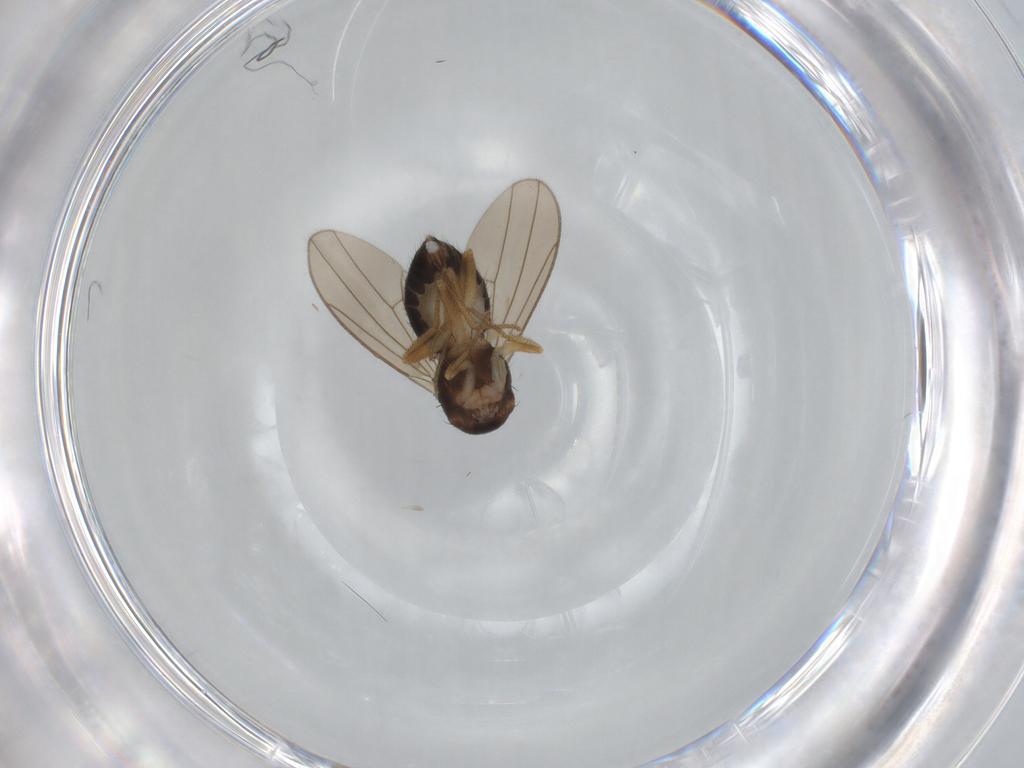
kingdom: Animalia
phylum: Arthropoda
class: Insecta
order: Diptera
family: Drosophilidae
